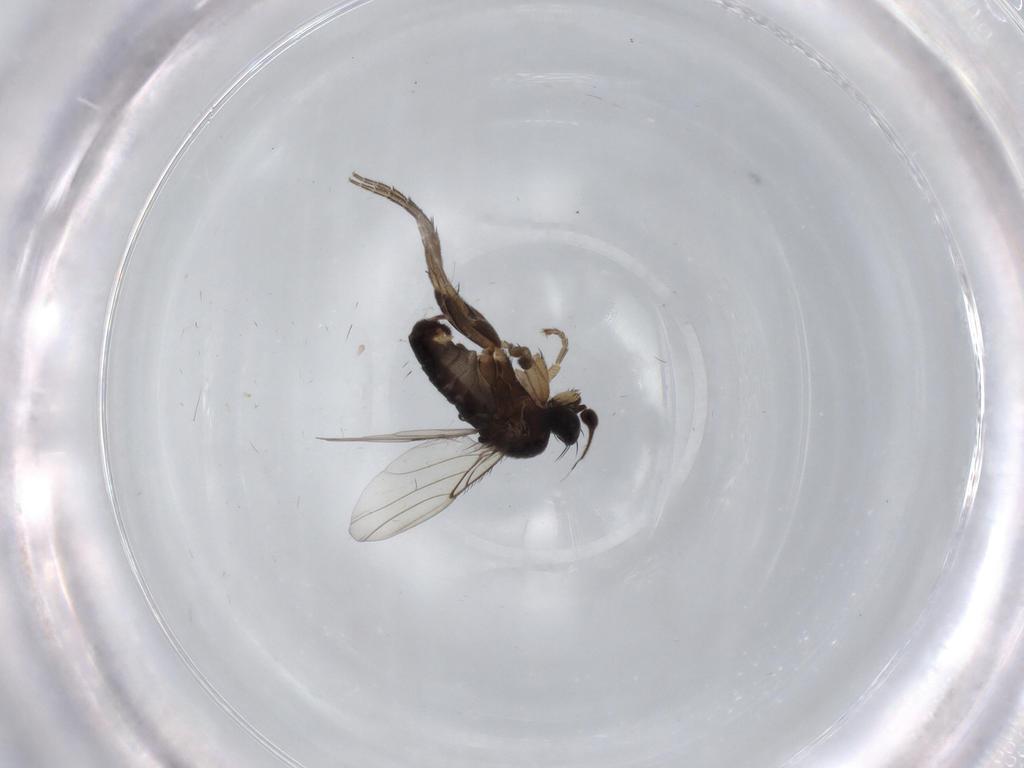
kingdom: Animalia
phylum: Arthropoda
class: Insecta
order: Diptera
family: Phoridae
